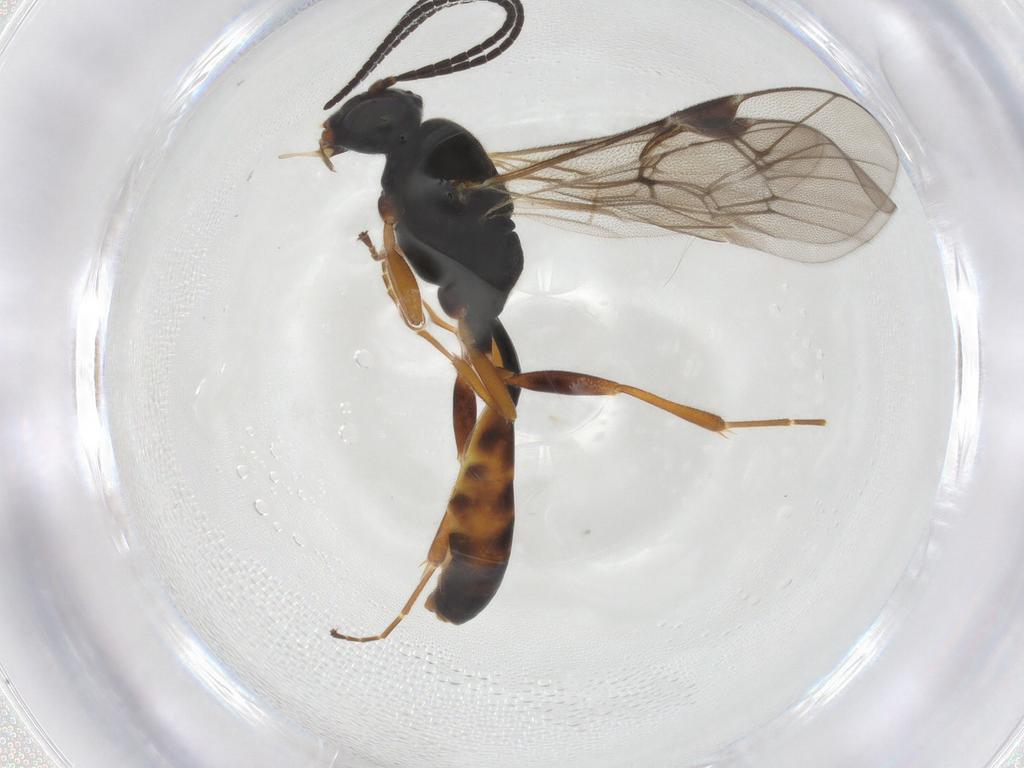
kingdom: Animalia
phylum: Arthropoda
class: Insecta
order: Hymenoptera
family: Ichneumonidae
